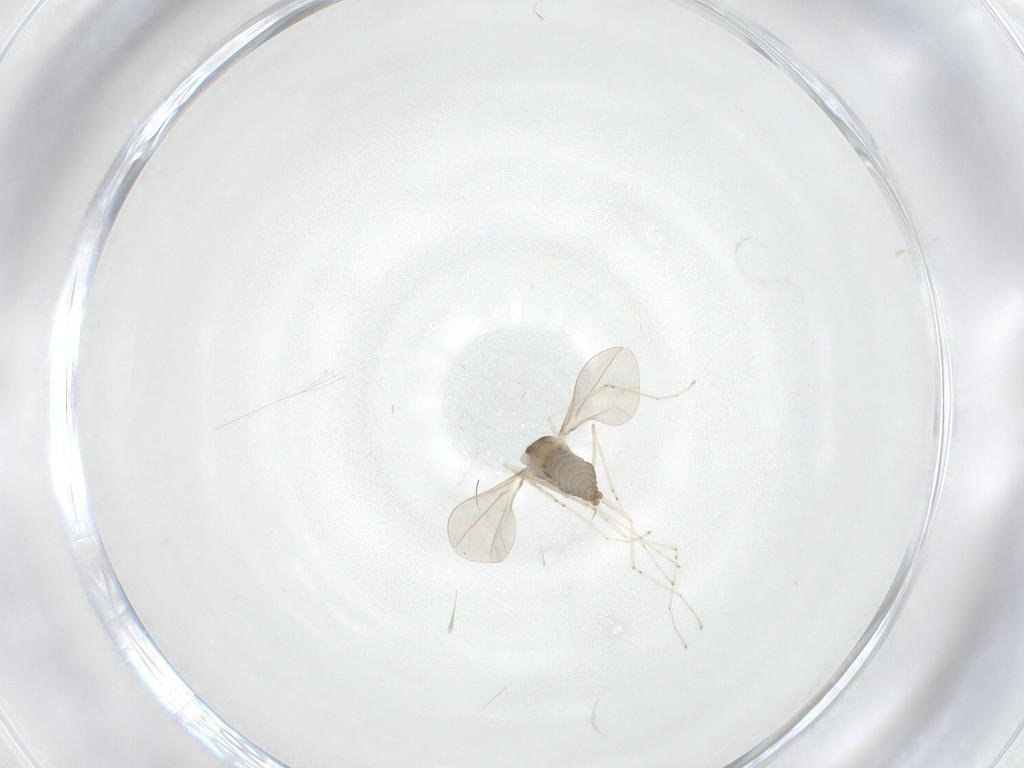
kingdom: Animalia
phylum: Arthropoda
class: Insecta
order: Diptera
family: Cecidomyiidae
